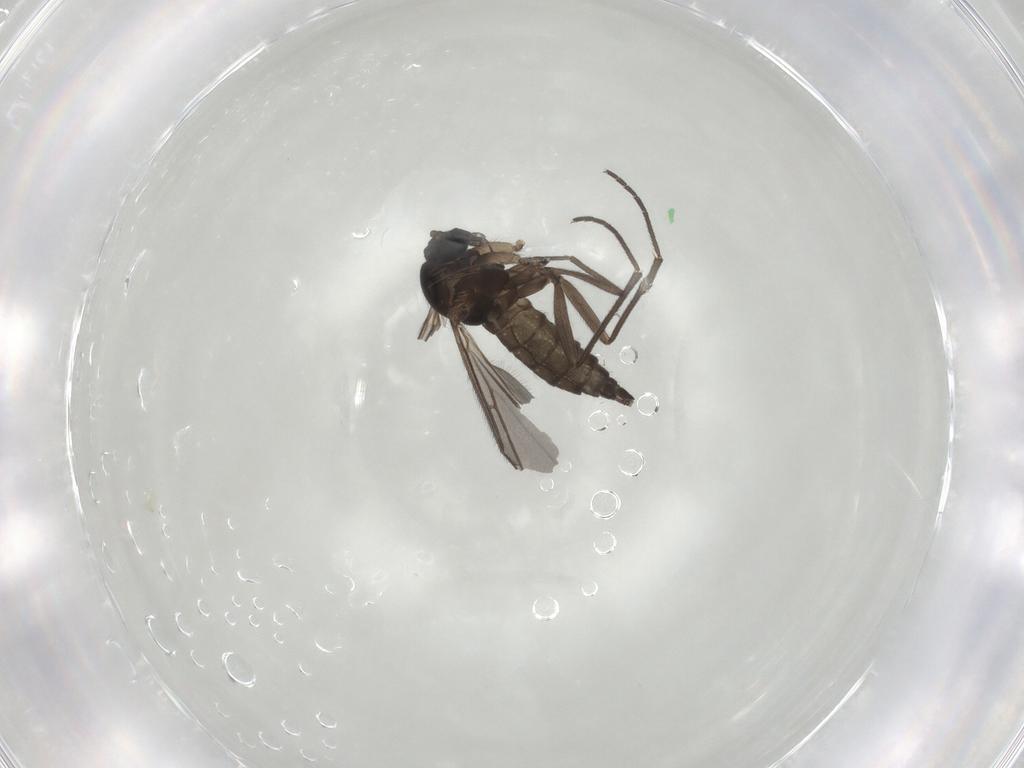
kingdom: Animalia
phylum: Arthropoda
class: Insecta
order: Diptera
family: Sciaridae
